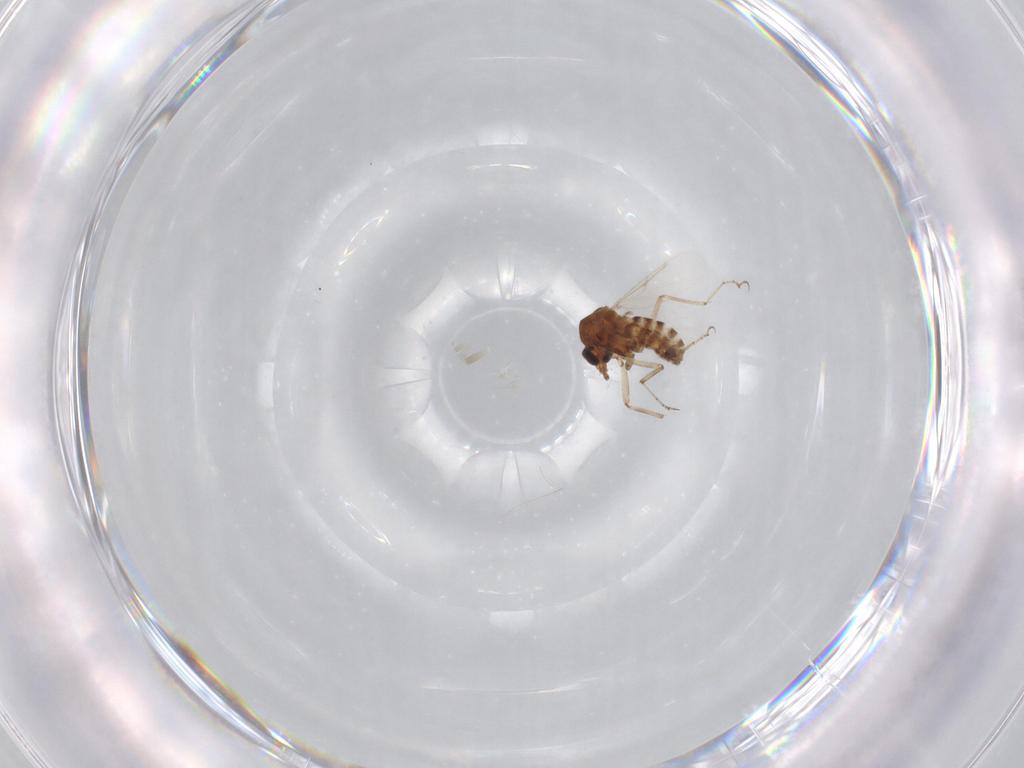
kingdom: Animalia
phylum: Arthropoda
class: Insecta
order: Diptera
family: Ceratopogonidae
